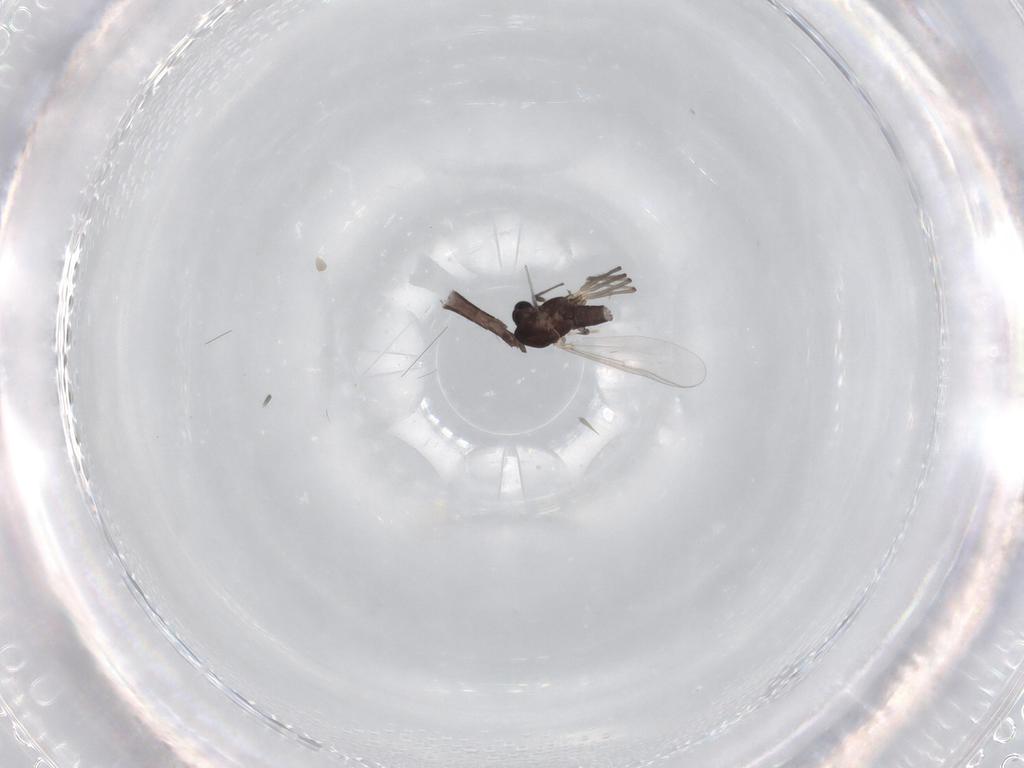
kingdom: Animalia
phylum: Arthropoda
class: Insecta
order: Diptera
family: Chironomidae
